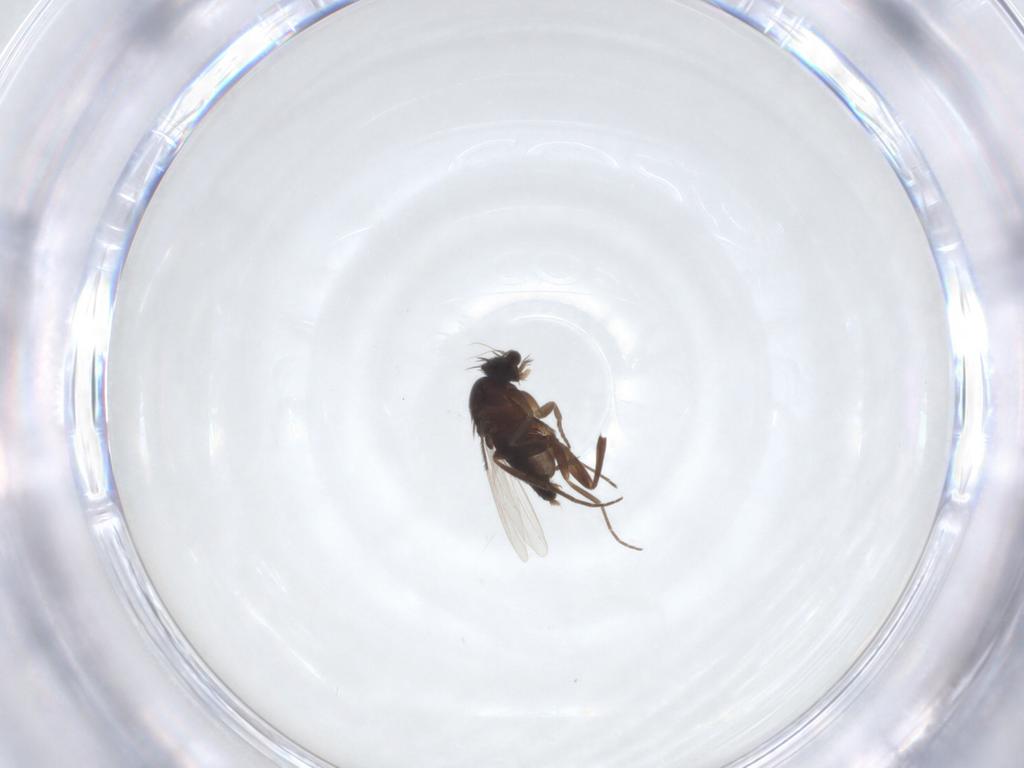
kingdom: Animalia
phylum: Arthropoda
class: Insecta
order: Diptera
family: Phoridae
